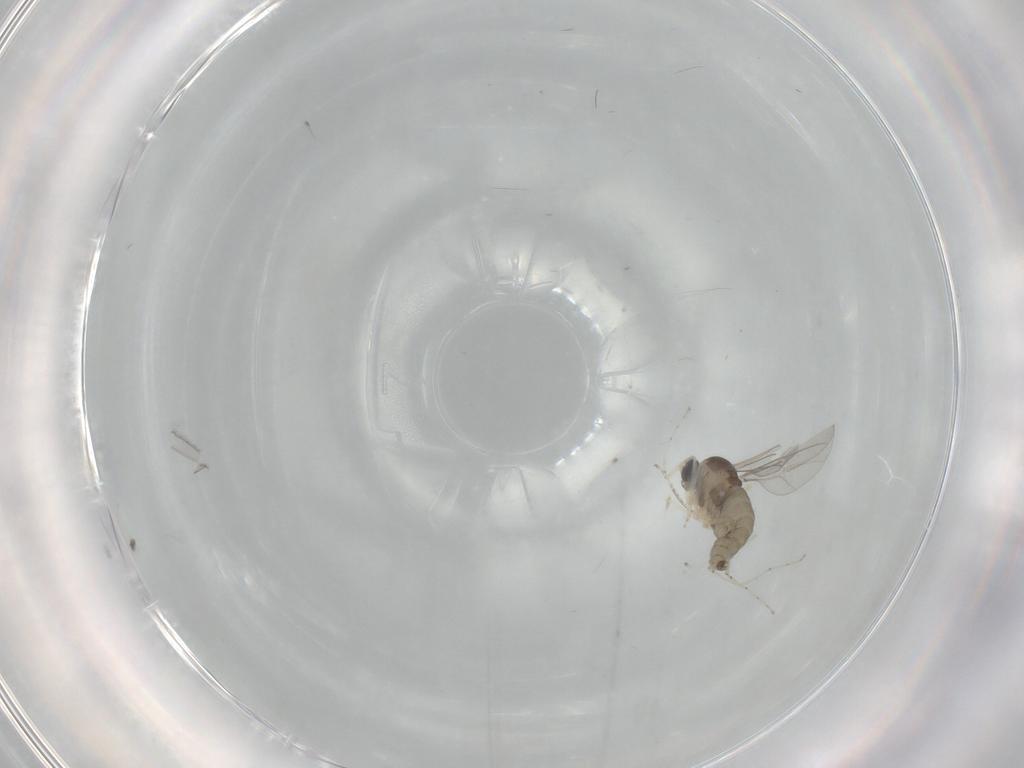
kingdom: Animalia
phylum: Arthropoda
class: Insecta
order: Diptera
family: Cecidomyiidae
